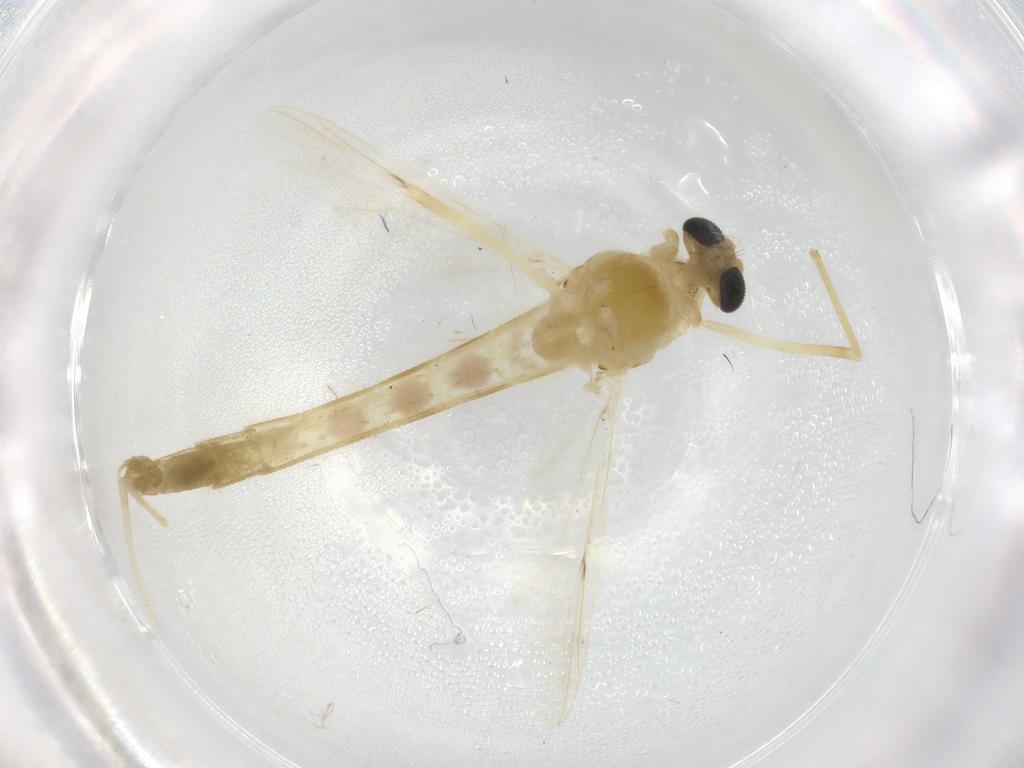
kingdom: Animalia
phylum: Arthropoda
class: Insecta
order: Diptera
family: Chironomidae
